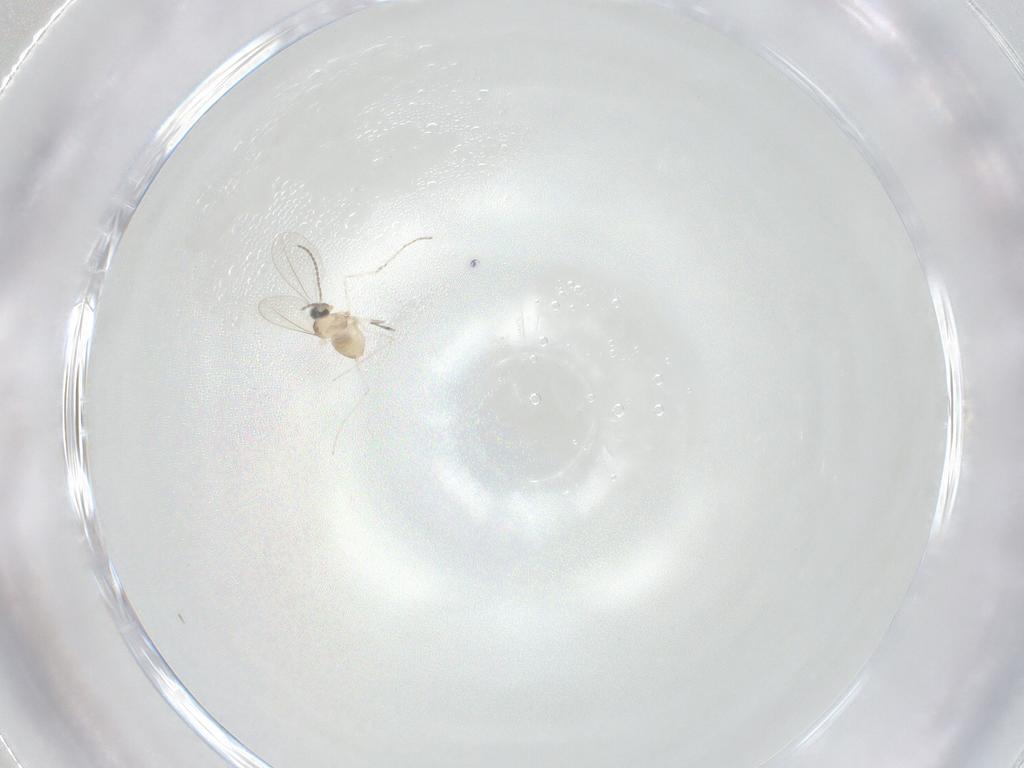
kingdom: Animalia
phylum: Arthropoda
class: Insecta
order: Diptera
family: Cecidomyiidae
